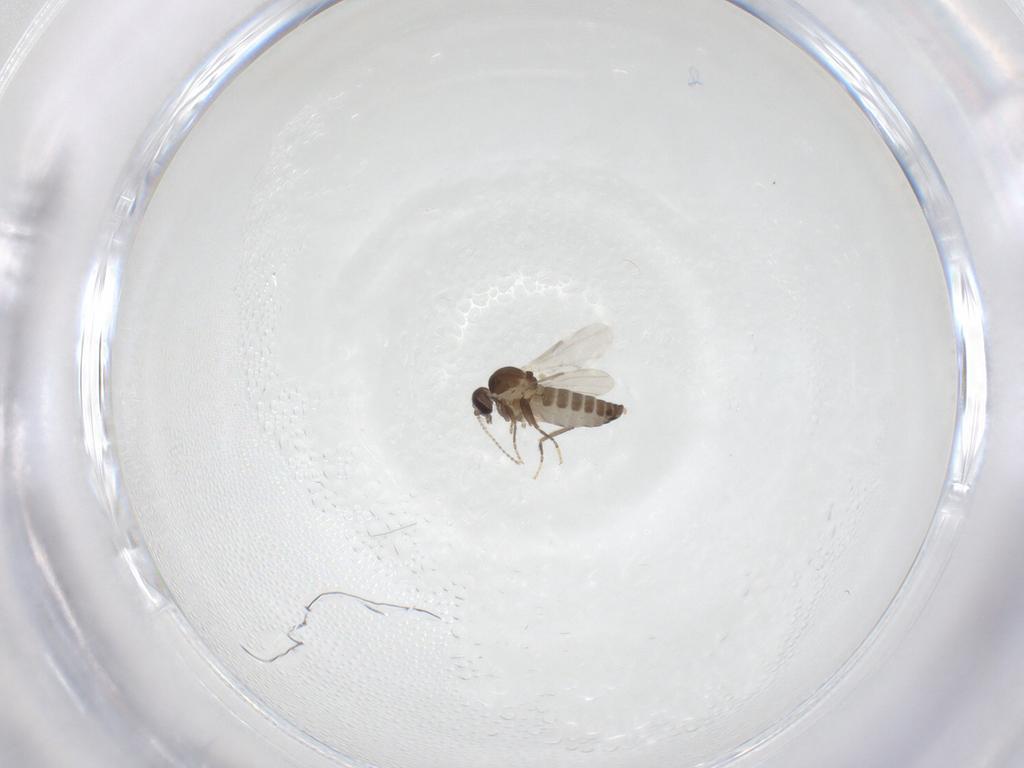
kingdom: Animalia
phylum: Arthropoda
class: Insecta
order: Diptera
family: Ceratopogonidae
